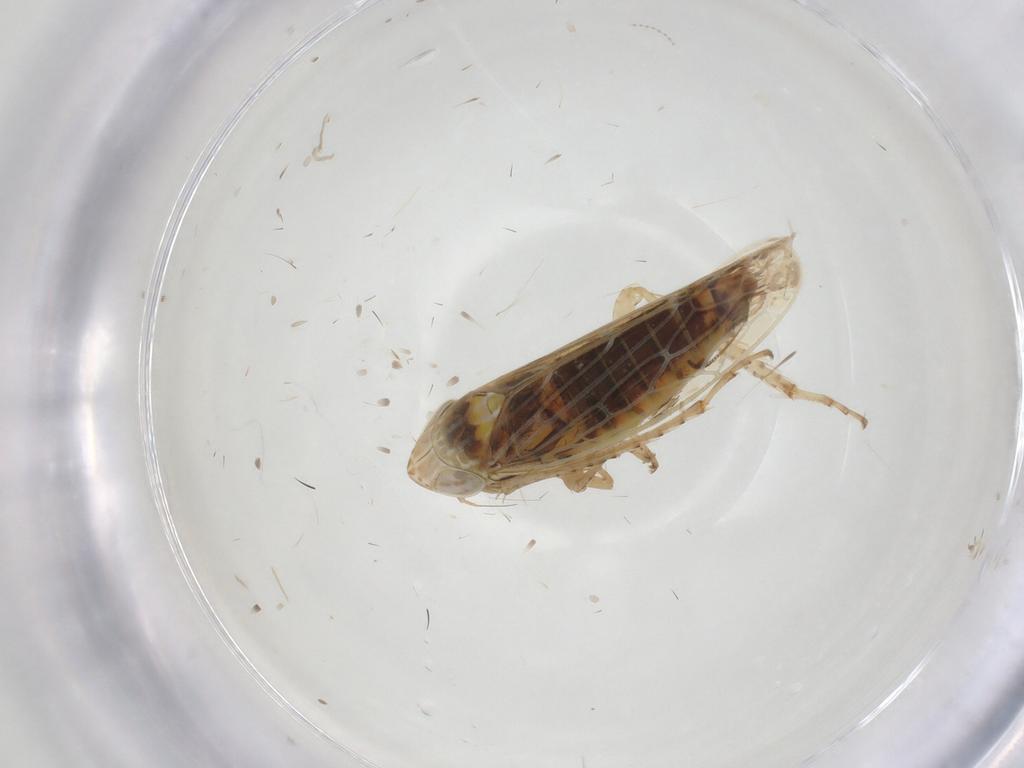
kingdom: Animalia
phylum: Arthropoda
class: Insecta
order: Hemiptera
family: Cicadellidae
